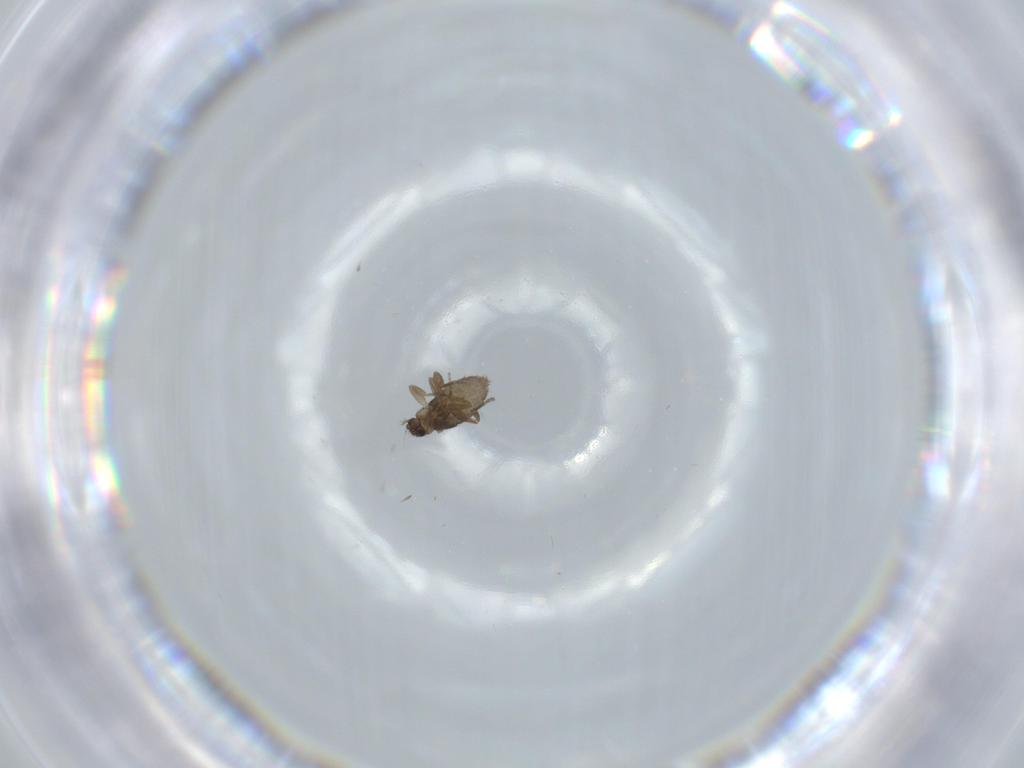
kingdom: Animalia
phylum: Arthropoda
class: Insecta
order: Diptera
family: Phoridae
